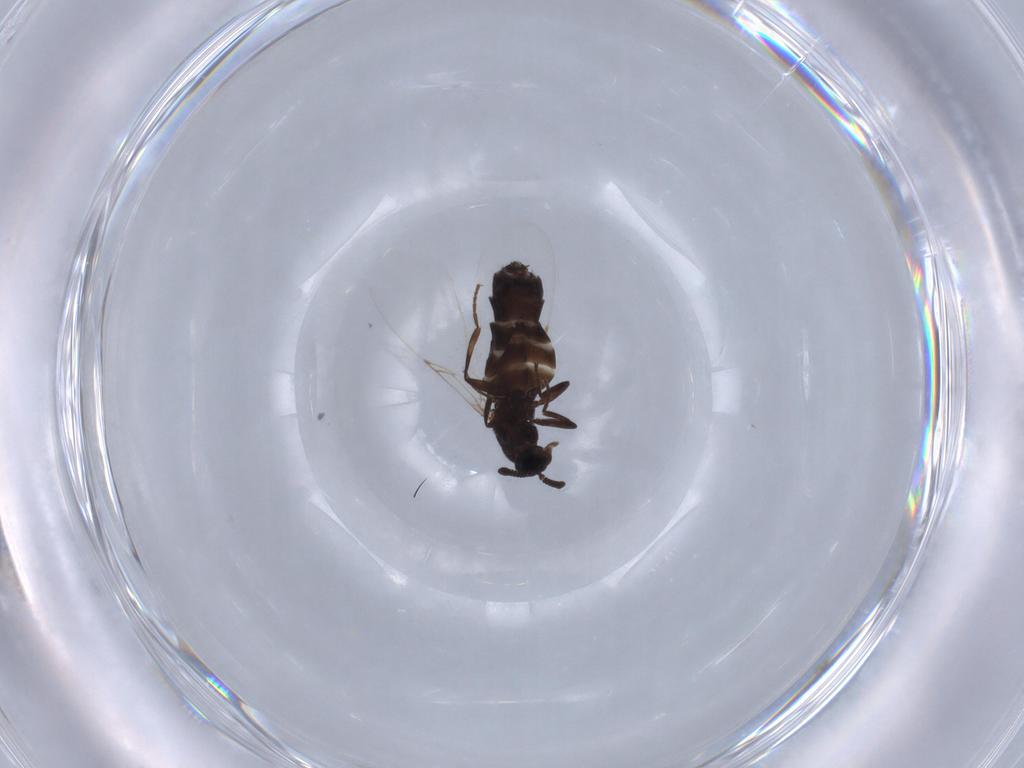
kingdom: Animalia
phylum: Arthropoda
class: Insecta
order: Diptera
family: Scatopsidae
